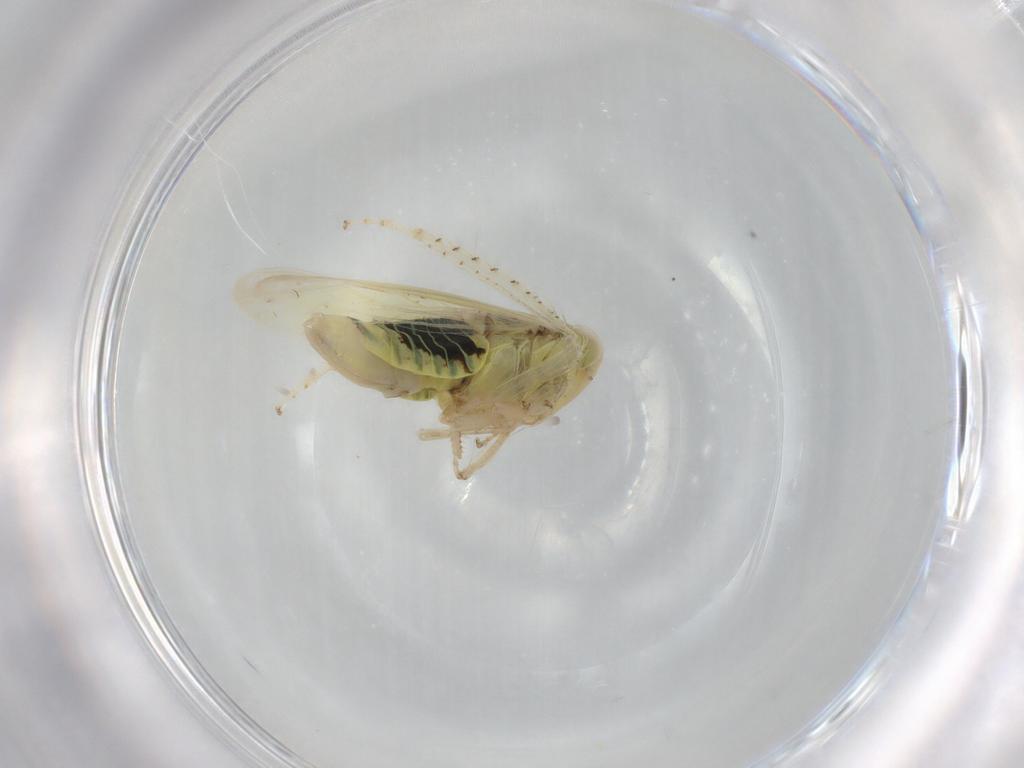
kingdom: Animalia
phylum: Arthropoda
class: Insecta
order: Hemiptera
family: Cicadellidae
